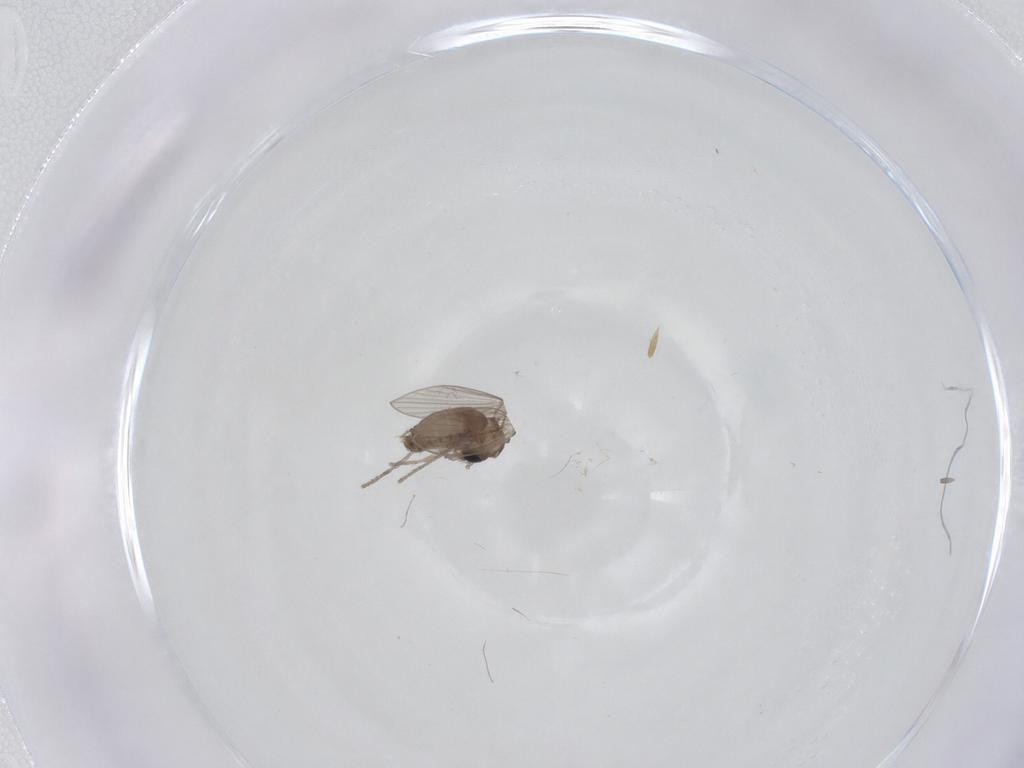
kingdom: Animalia
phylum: Arthropoda
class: Insecta
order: Diptera
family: Psychodidae
